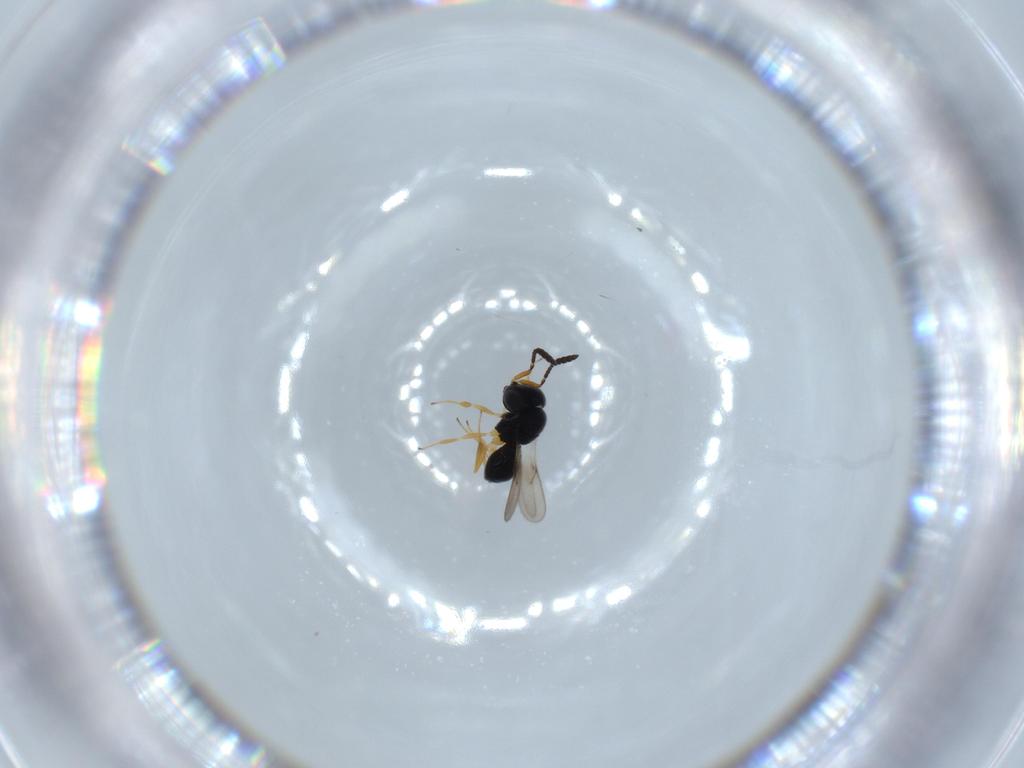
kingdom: Animalia
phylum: Arthropoda
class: Insecta
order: Hymenoptera
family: Scelionidae
